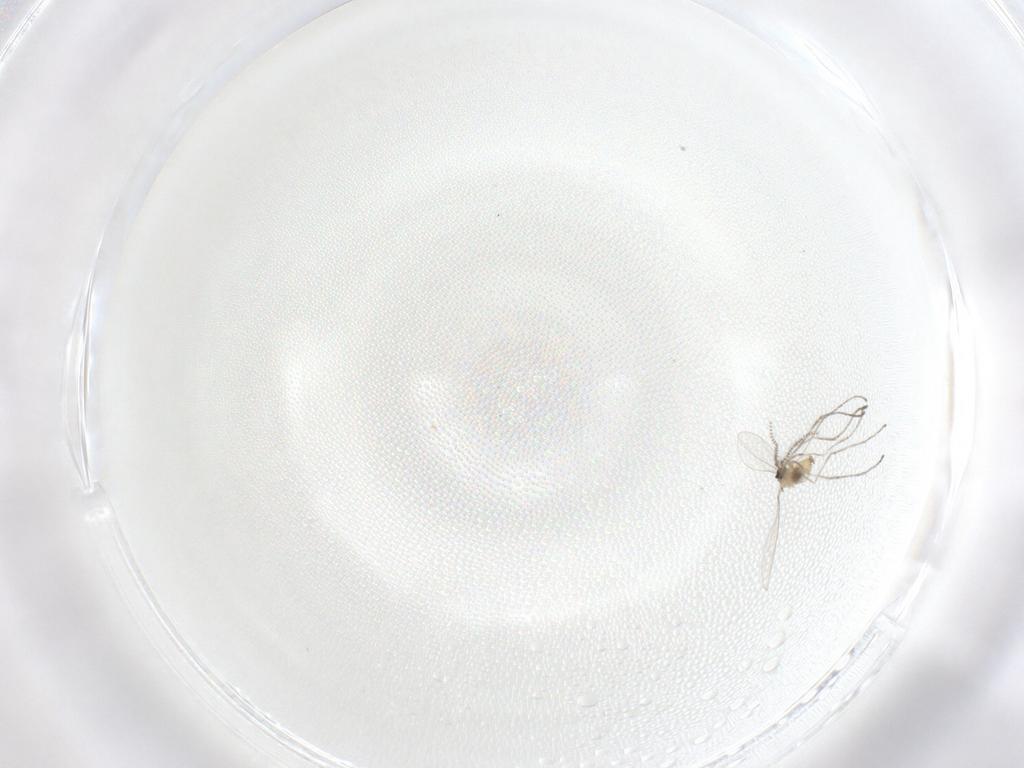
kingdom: Animalia
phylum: Arthropoda
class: Insecta
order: Diptera
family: Cecidomyiidae
